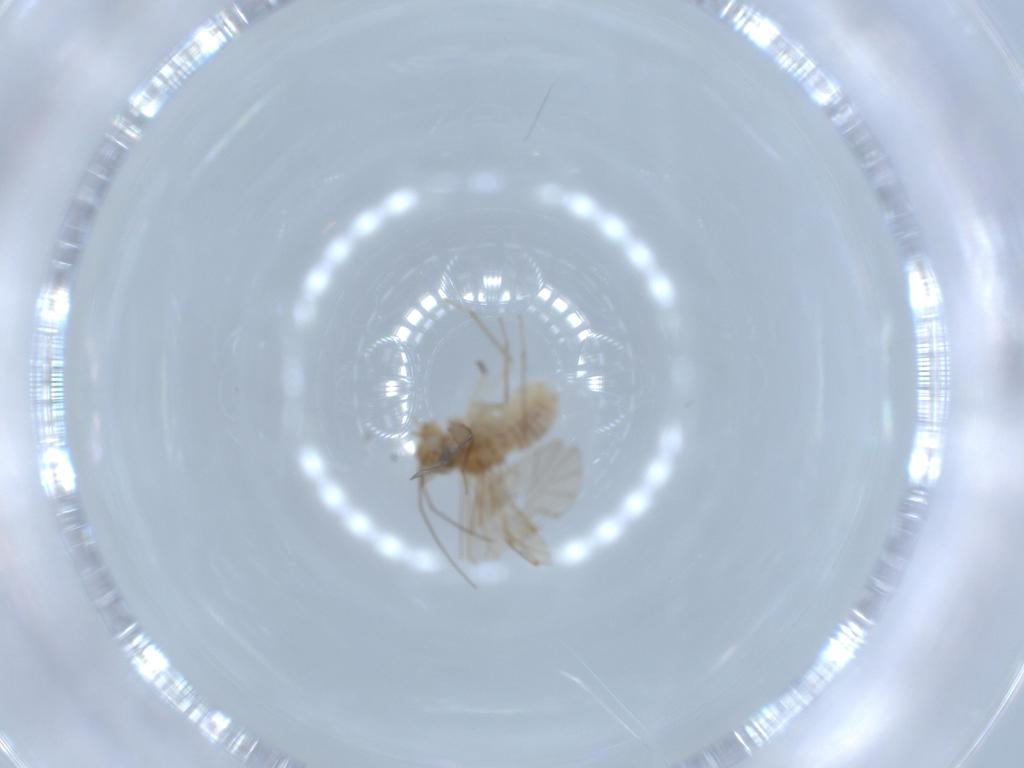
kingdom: Animalia
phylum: Arthropoda
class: Insecta
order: Psocodea
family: Lachesillidae
